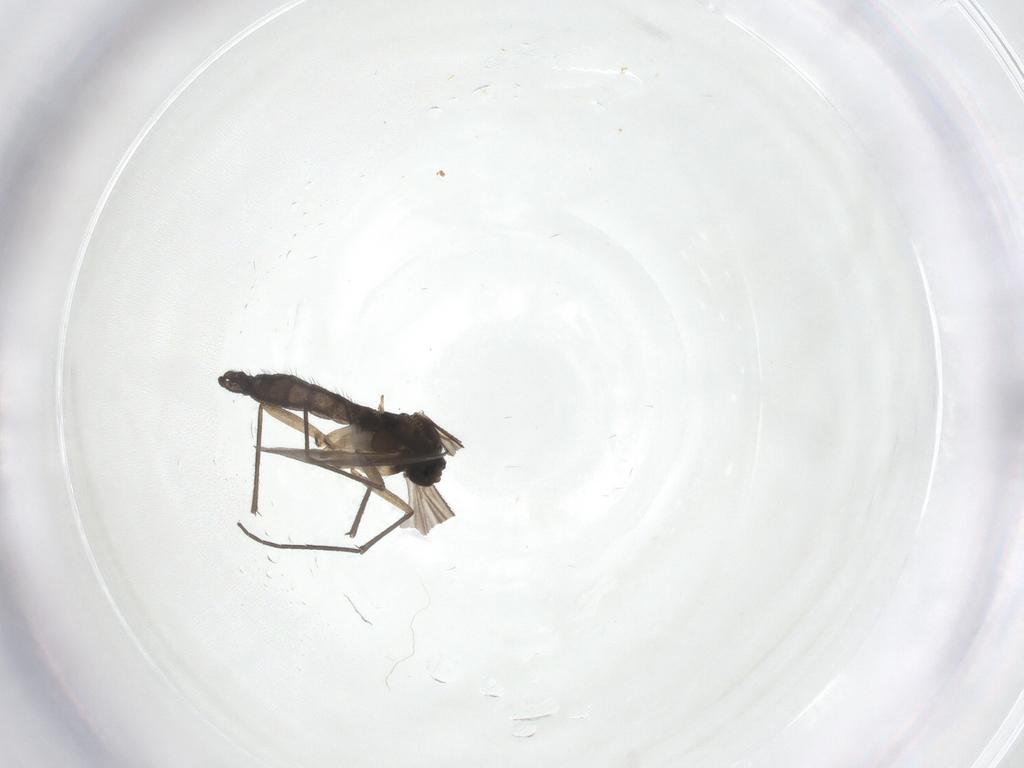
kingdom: Animalia
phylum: Arthropoda
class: Insecta
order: Diptera
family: Sciaridae
